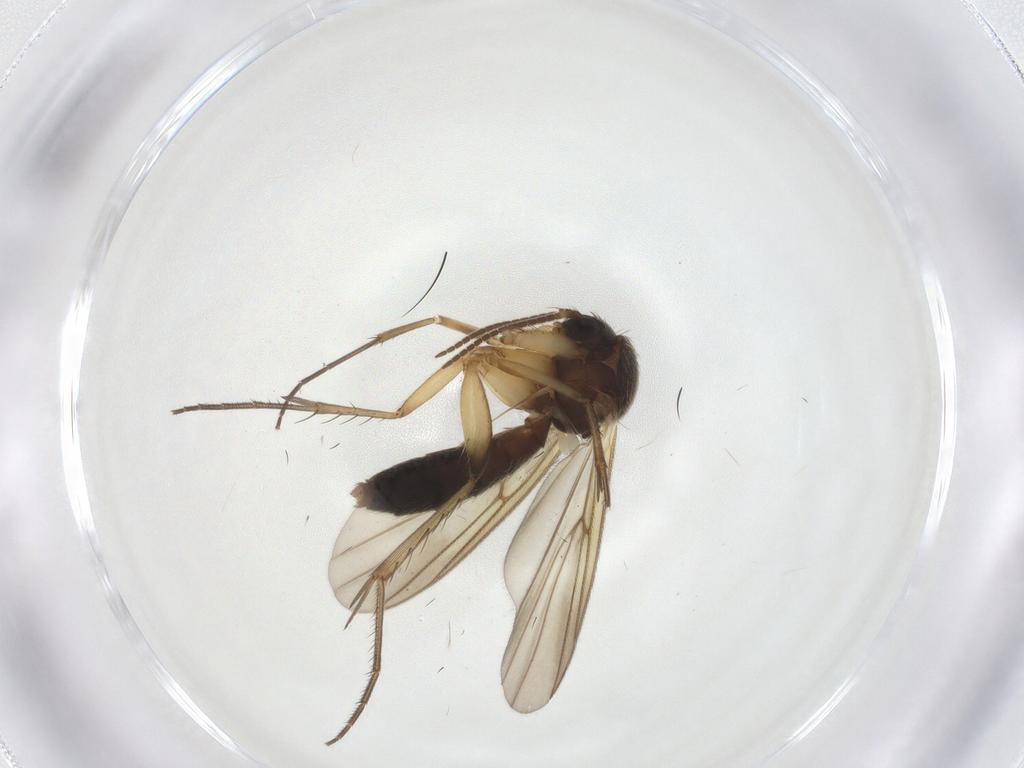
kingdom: Animalia
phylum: Arthropoda
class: Insecta
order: Diptera
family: Mycetophilidae
